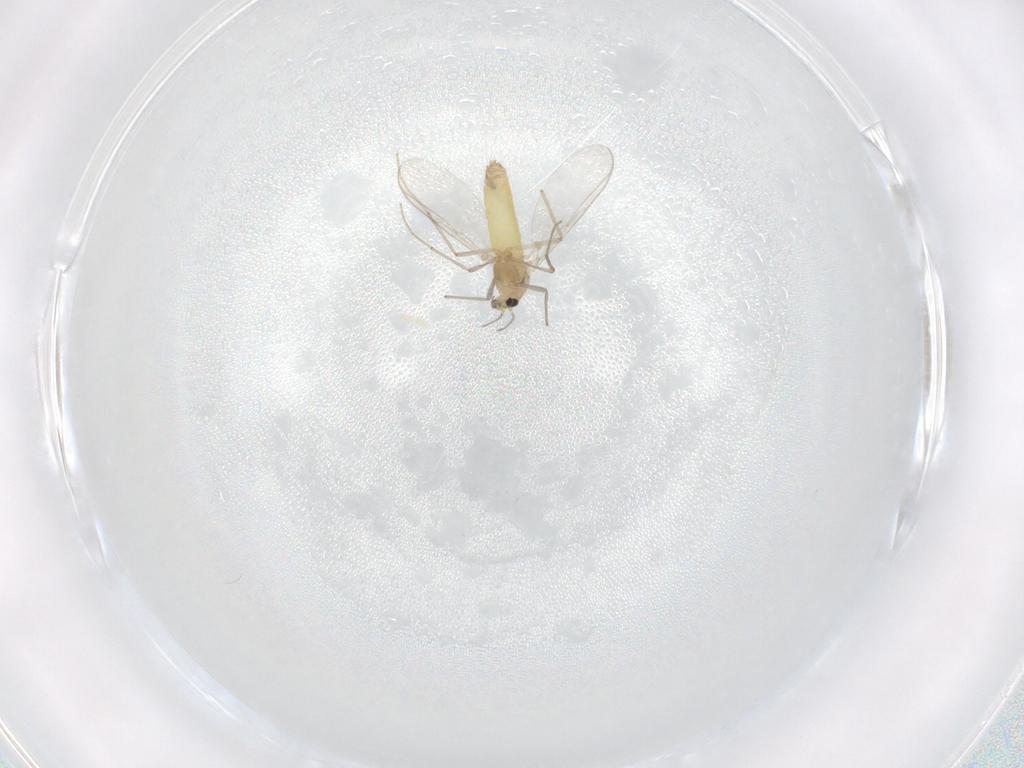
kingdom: Animalia
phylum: Arthropoda
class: Insecta
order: Diptera
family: Chironomidae
